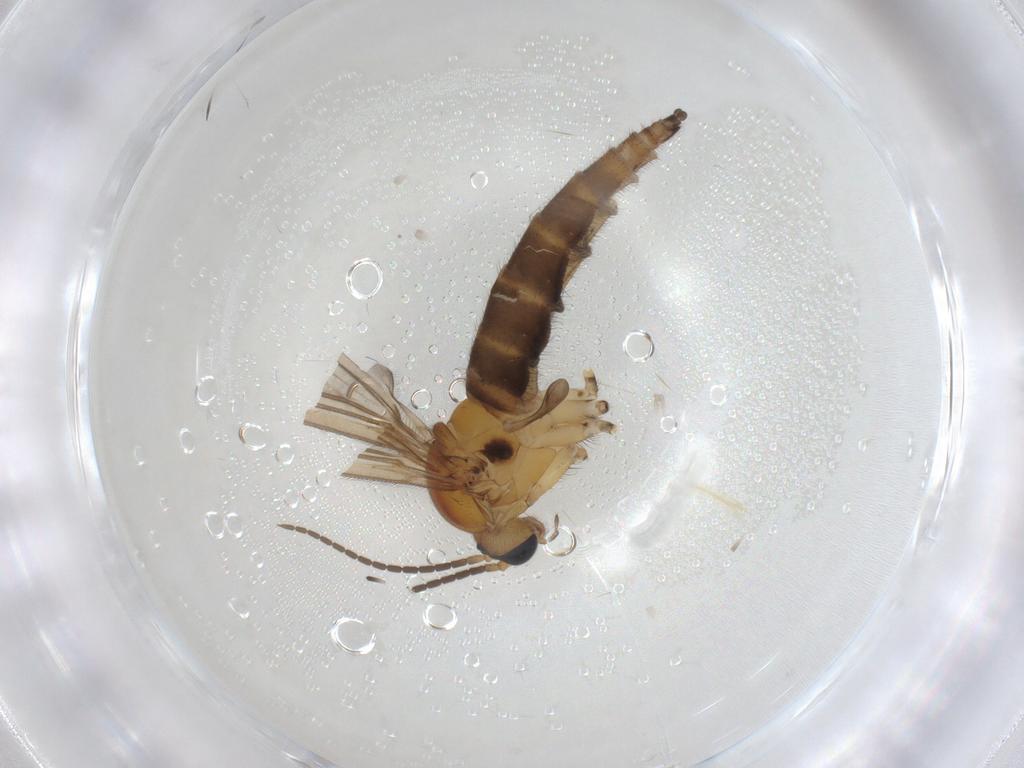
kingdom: Animalia
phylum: Arthropoda
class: Insecta
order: Diptera
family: Sciaridae
